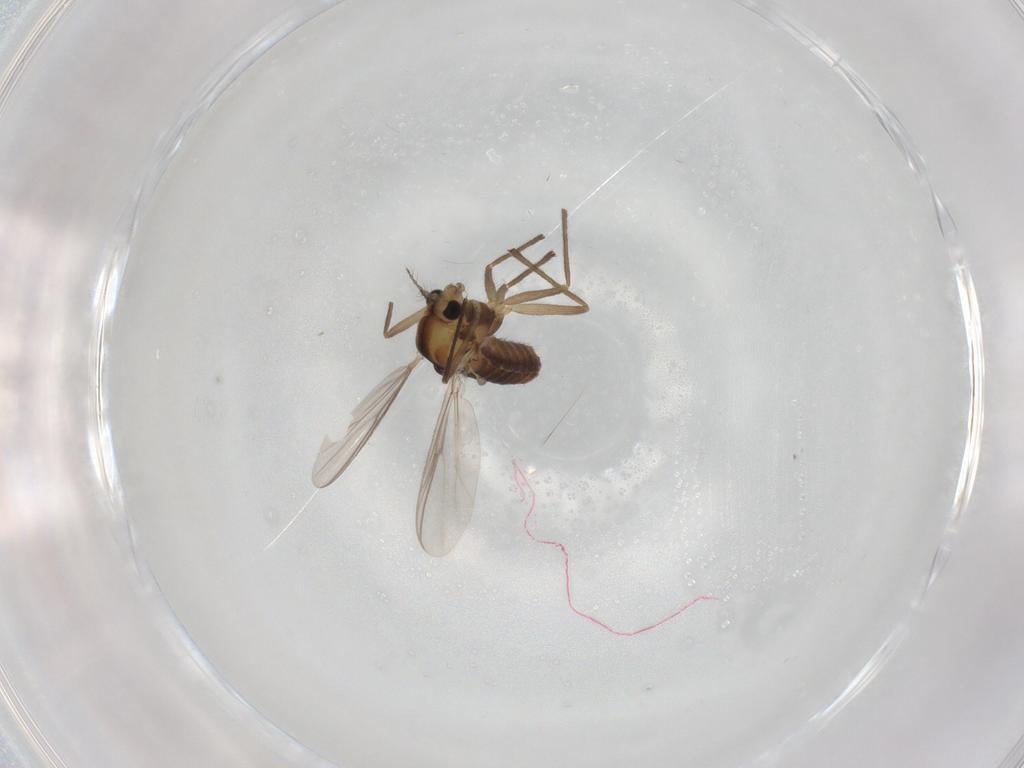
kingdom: Animalia
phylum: Arthropoda
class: Insecta
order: Diptera
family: Chironomidae
